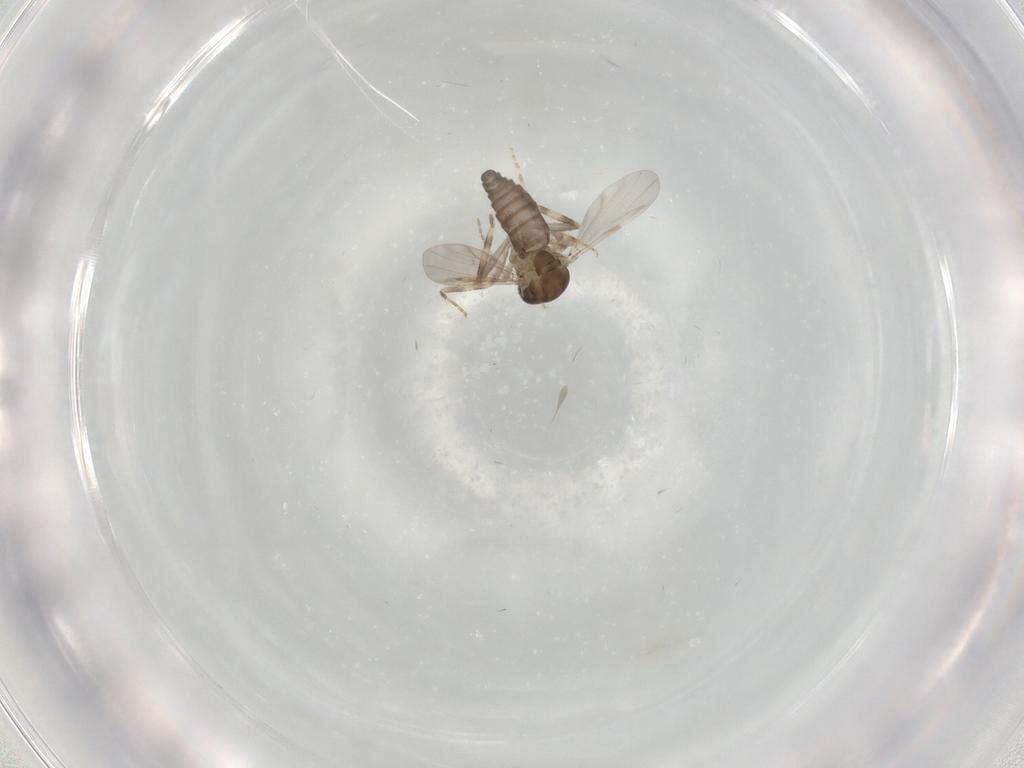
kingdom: Animalia
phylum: Arthropoda
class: Insecta
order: Diptera
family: Ceratopogonidae
